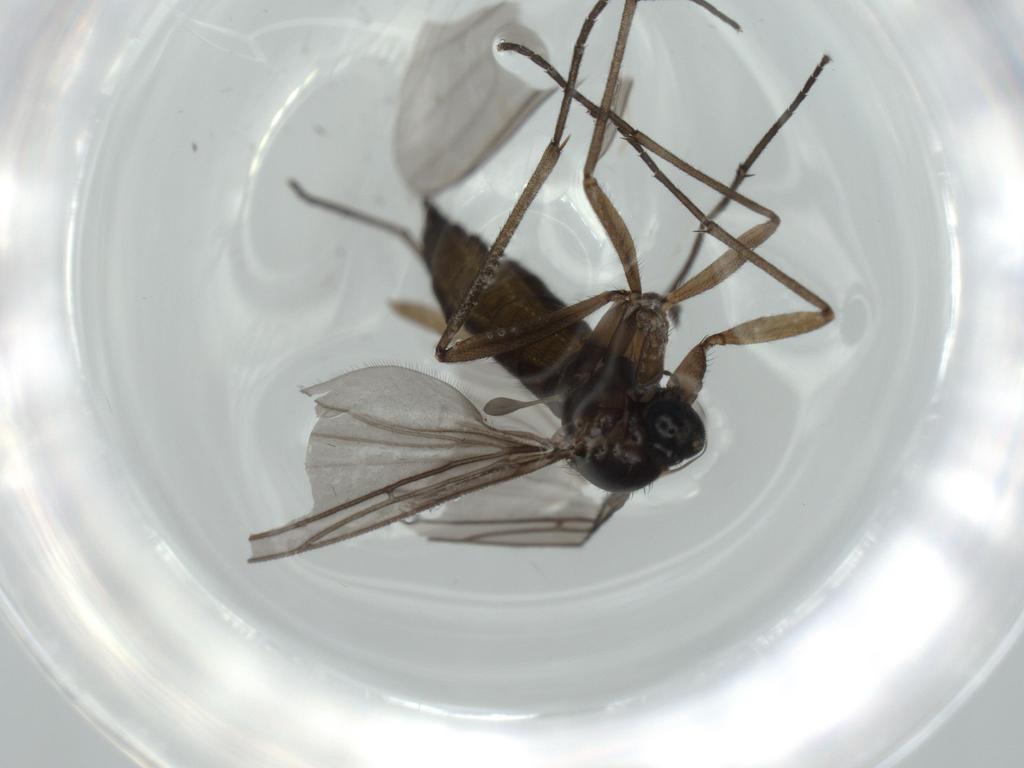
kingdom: Animalia
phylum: Arthropoda
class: Insecta
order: Diptera
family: Sciaridae
